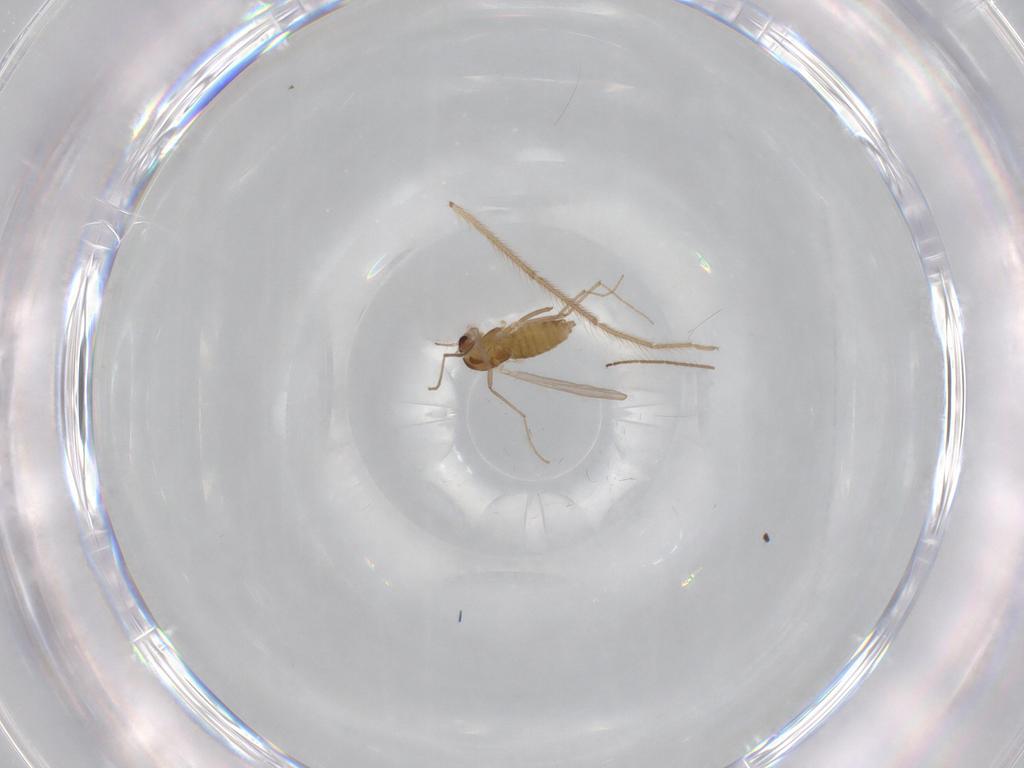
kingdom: Animalia
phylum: Arthropoda
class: Insecta
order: Diptera
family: Chironomidae
